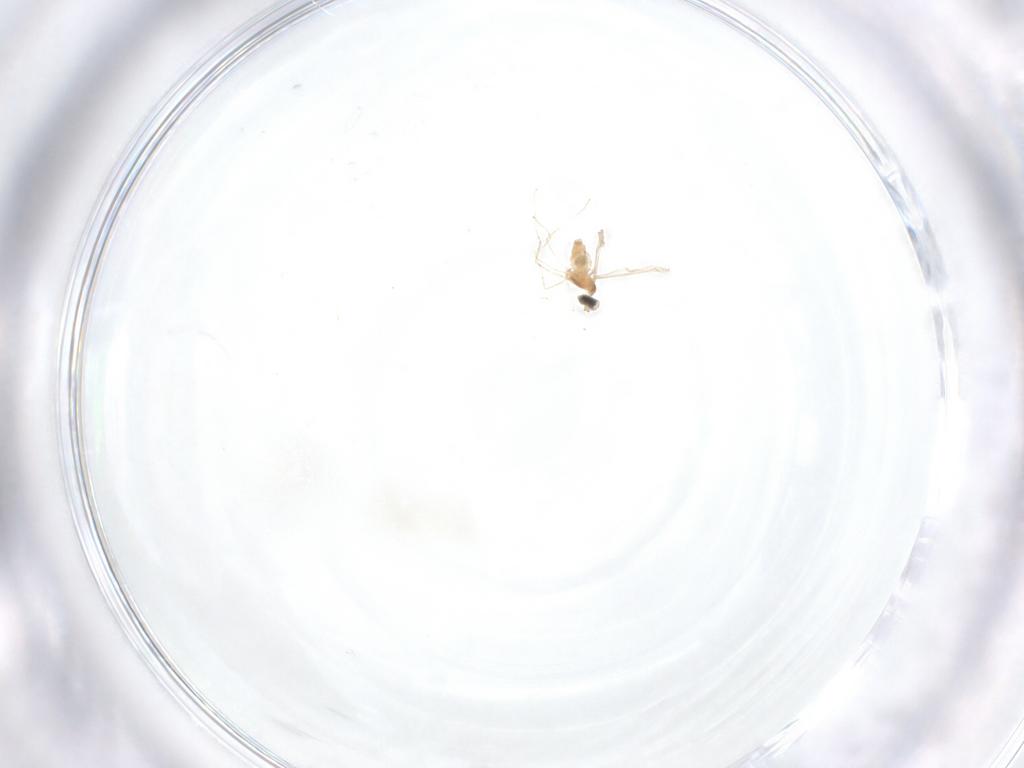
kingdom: Animalia
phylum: Arthropoda
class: Insecta
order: Diptera
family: Cecidomyiidae
